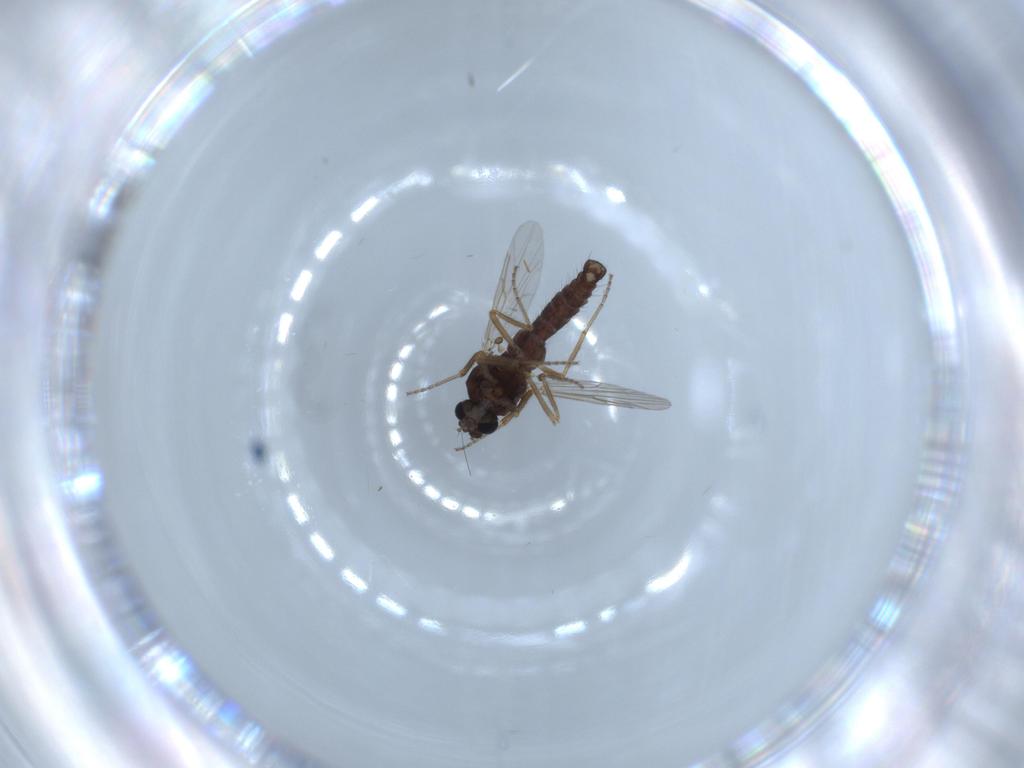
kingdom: Animalia
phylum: Arthropoda
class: Insecta
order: Diptera
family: Ceratopogonidae
